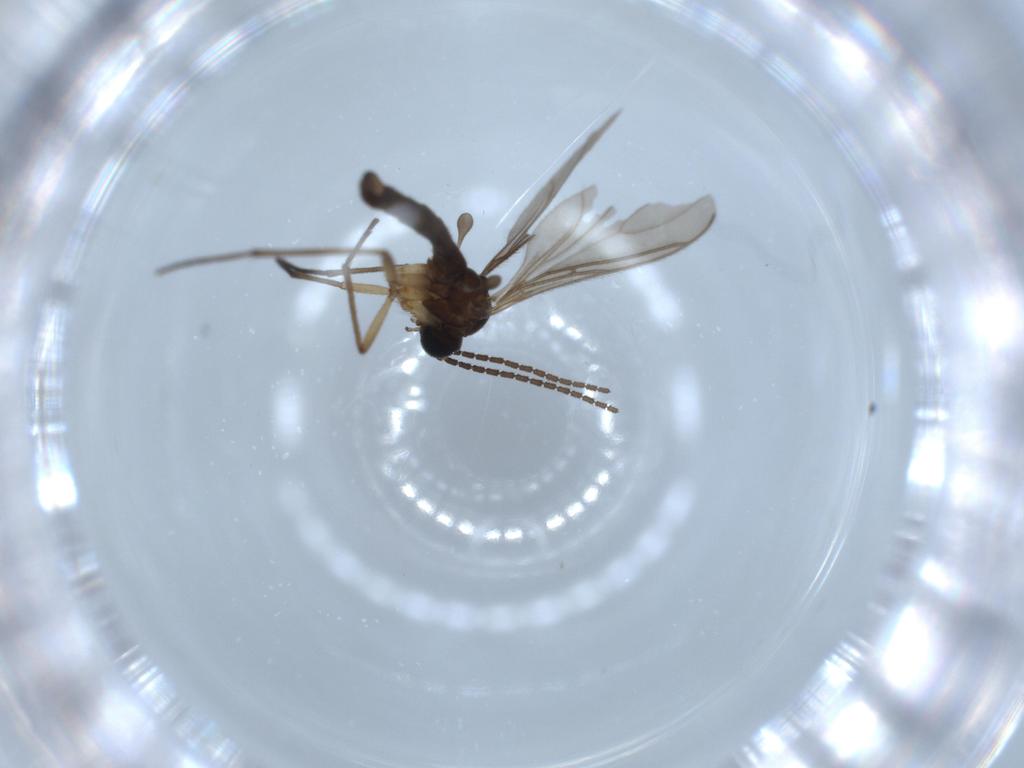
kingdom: Animalia
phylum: Arthropoda
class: Insecta
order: Diptera
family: Sciaridae
